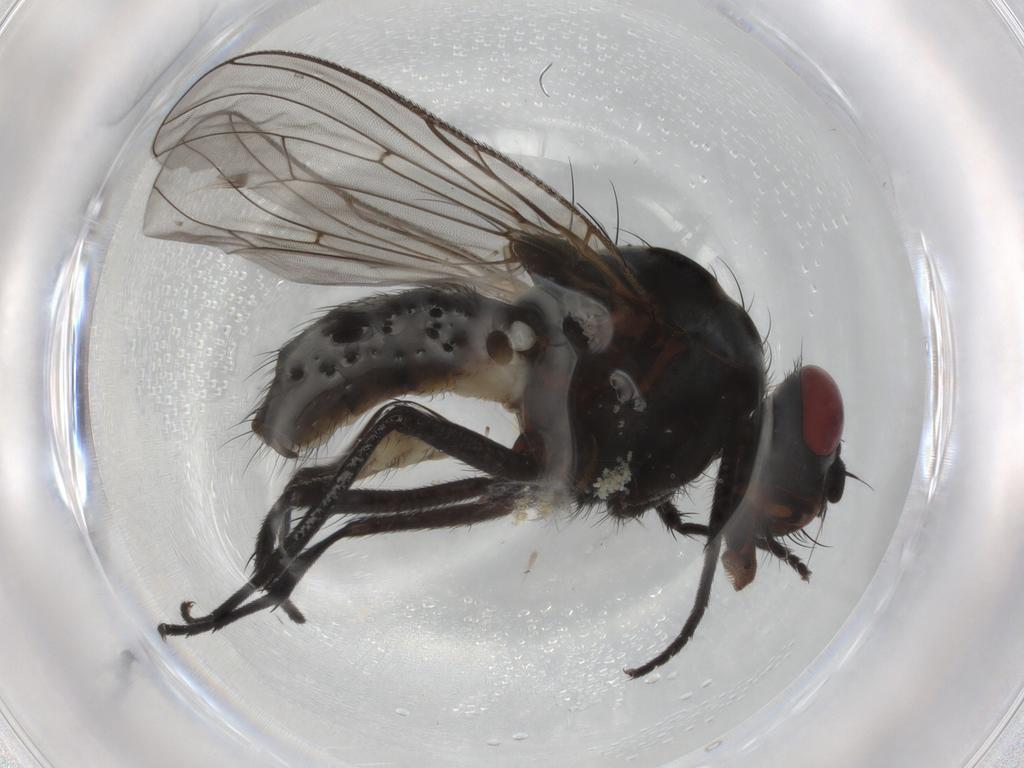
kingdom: Animalia
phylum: Arthropoda
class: Insecta
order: Diptera
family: Anthomyiidae
